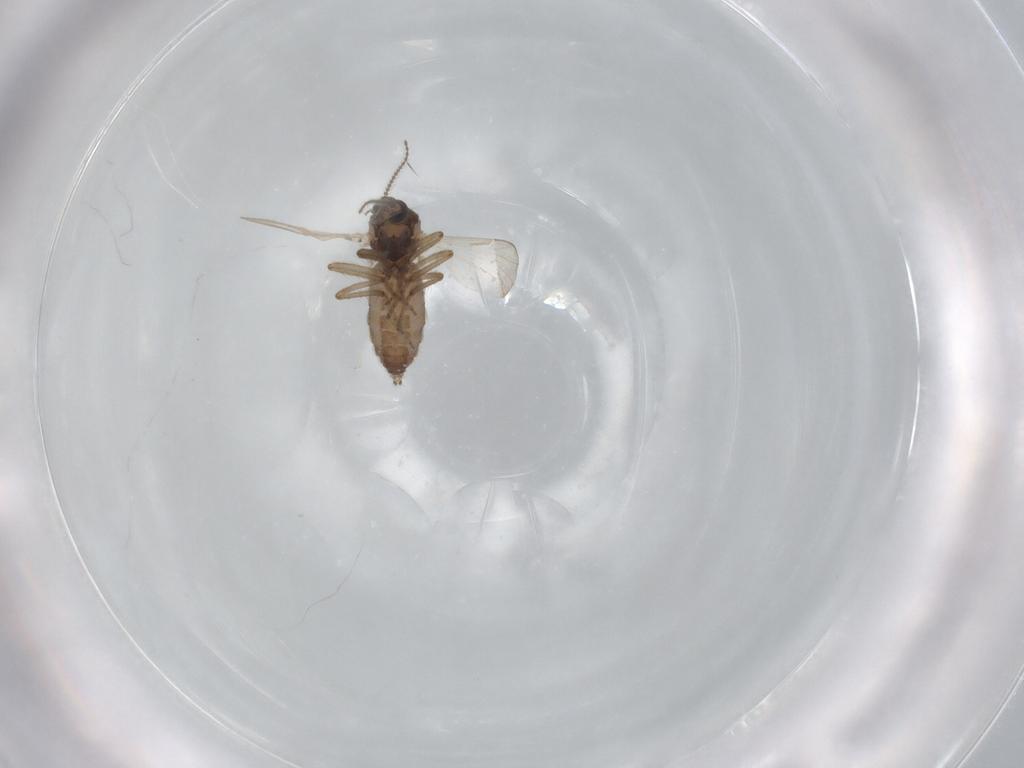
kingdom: Animalia
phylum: Arthropoda
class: Insecta
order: Diptera
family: Ceratopogonidae
